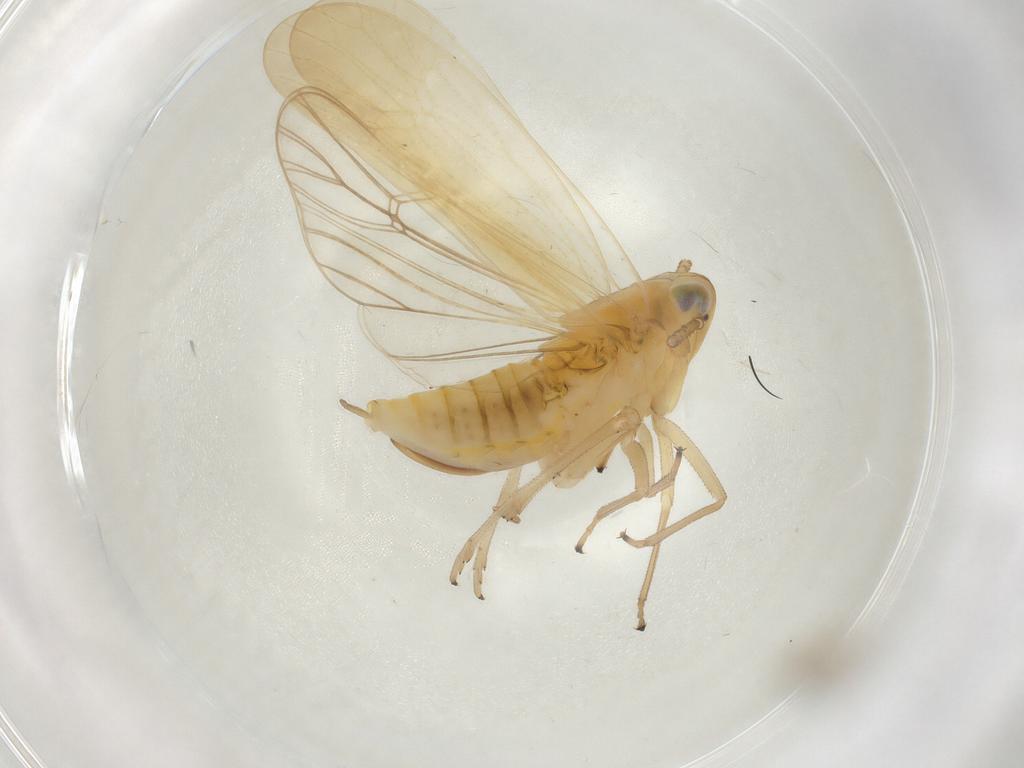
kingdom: Animalia
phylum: Arthropoda
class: Insecta
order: Hemiptera
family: Delphacidae
